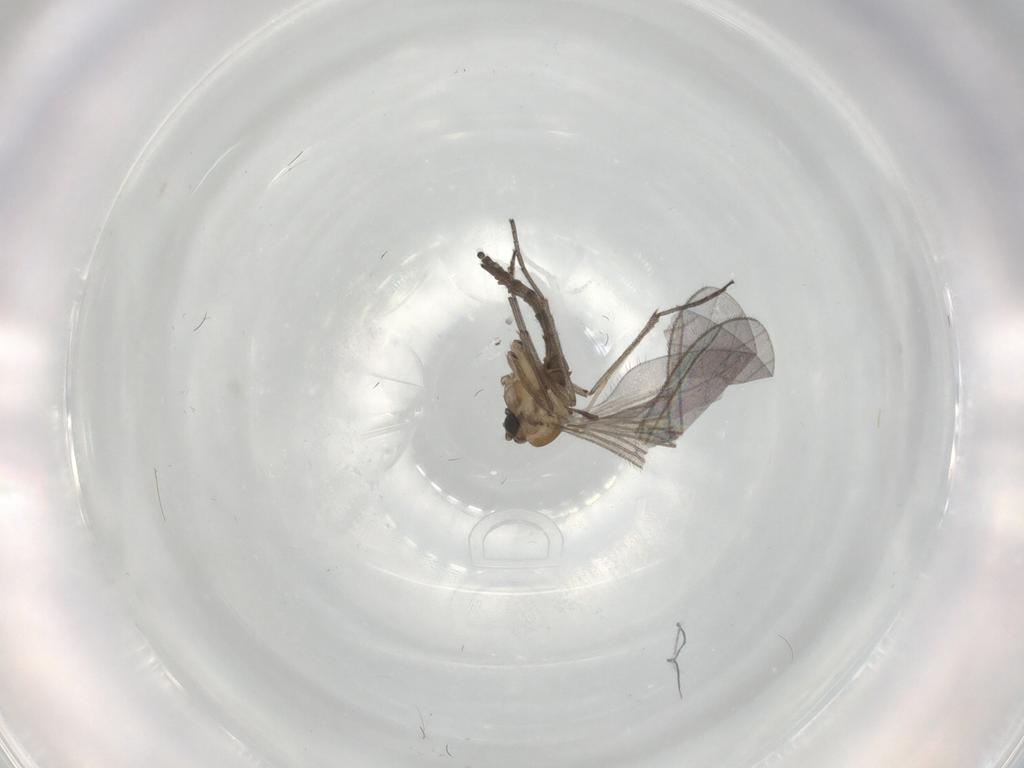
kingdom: Animalia
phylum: Arthropoda
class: Insecta
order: Diptera
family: Sciaridae
